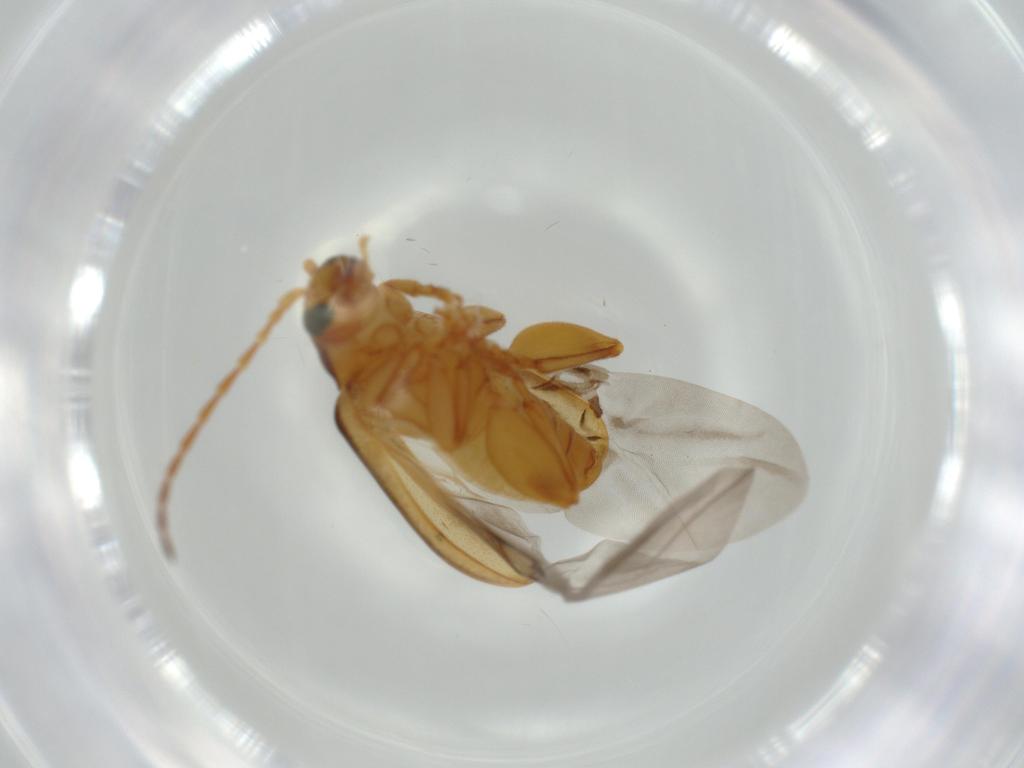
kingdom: Animalia
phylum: Arthropoda
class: Insecta
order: Coleoptera
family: Chrysomelidae
